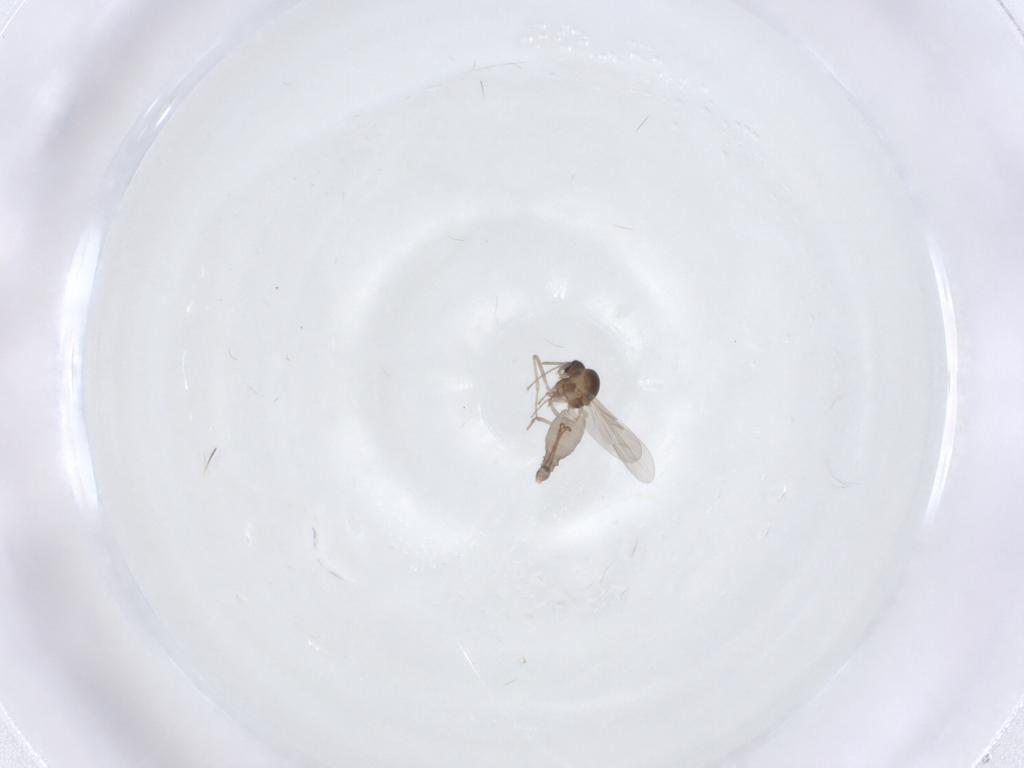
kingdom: Animalia
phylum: Arthropoda
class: Insecta
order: Diptera
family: Ceratopogonidae
